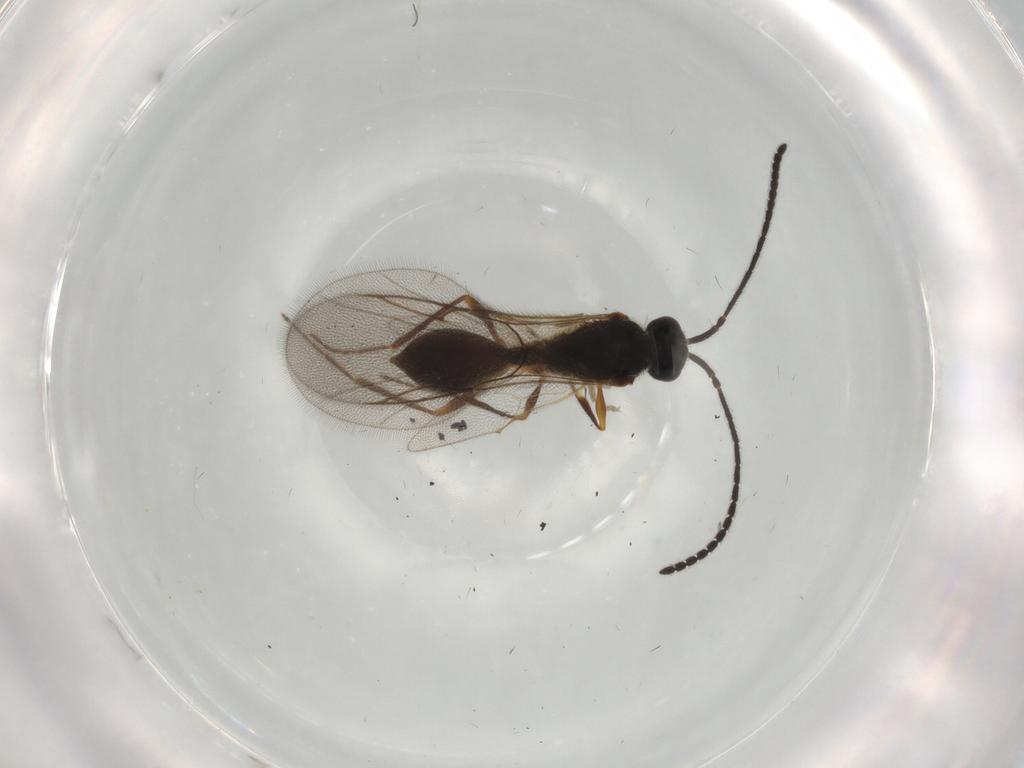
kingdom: Animalia
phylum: Arthropoda
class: Insecta
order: Hymenoptera
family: Diapriidae
